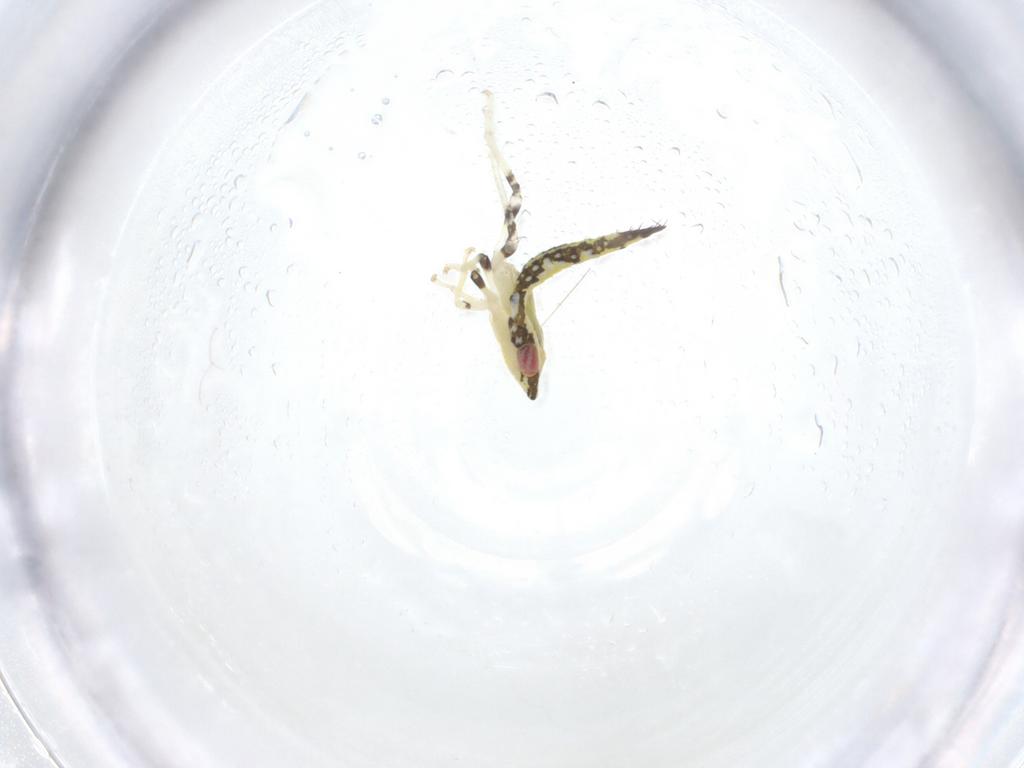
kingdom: Animalia
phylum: Arthropoda
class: Insecta
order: Hemiptera
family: Cicadellidae
